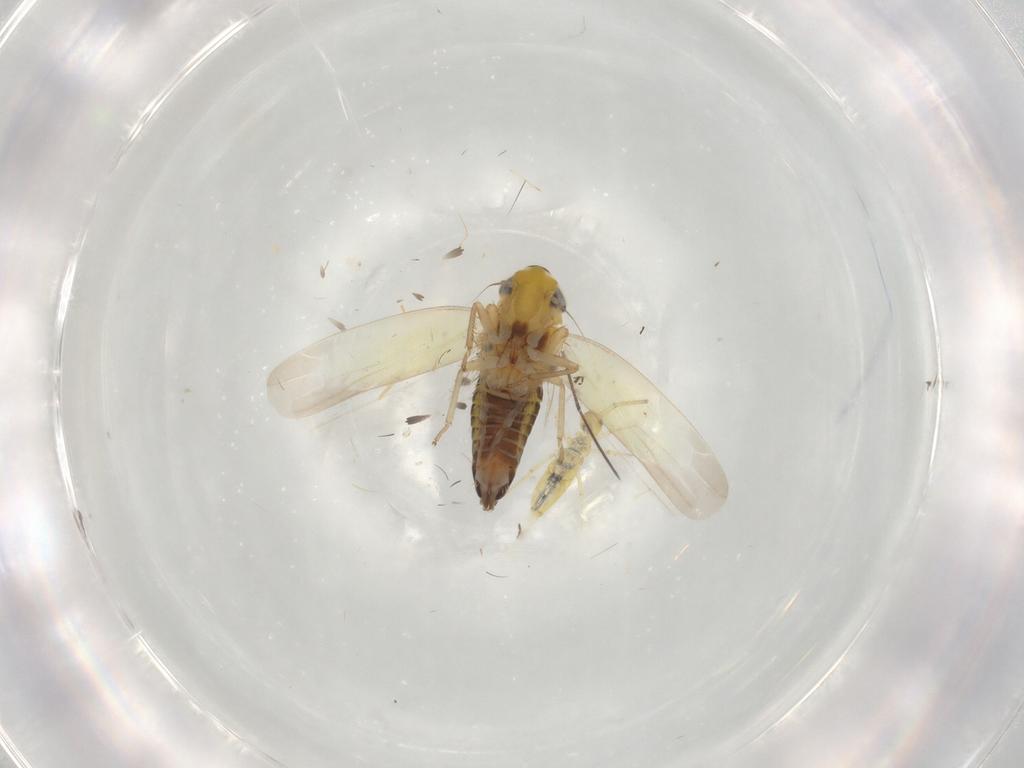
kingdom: Animalia
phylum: Arthropoda
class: Insecta
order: Hemiptera
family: Cicadellidae
